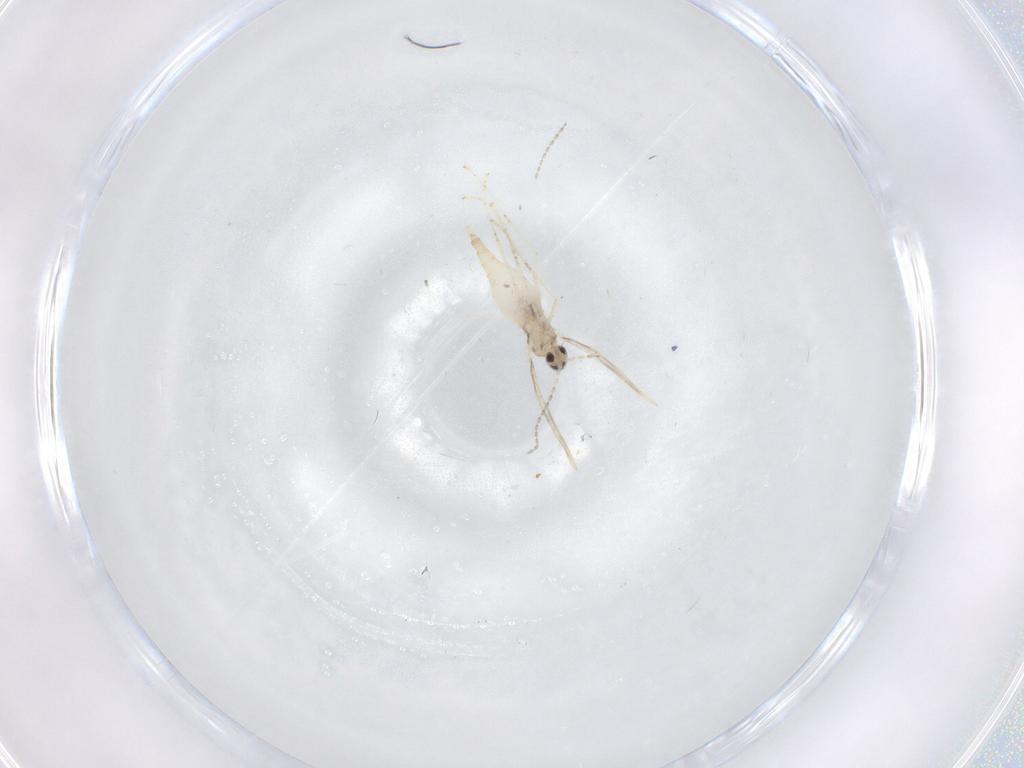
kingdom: Animalia
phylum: Arthropoda
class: Insecta
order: Diptera
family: Cecidomyiidae
